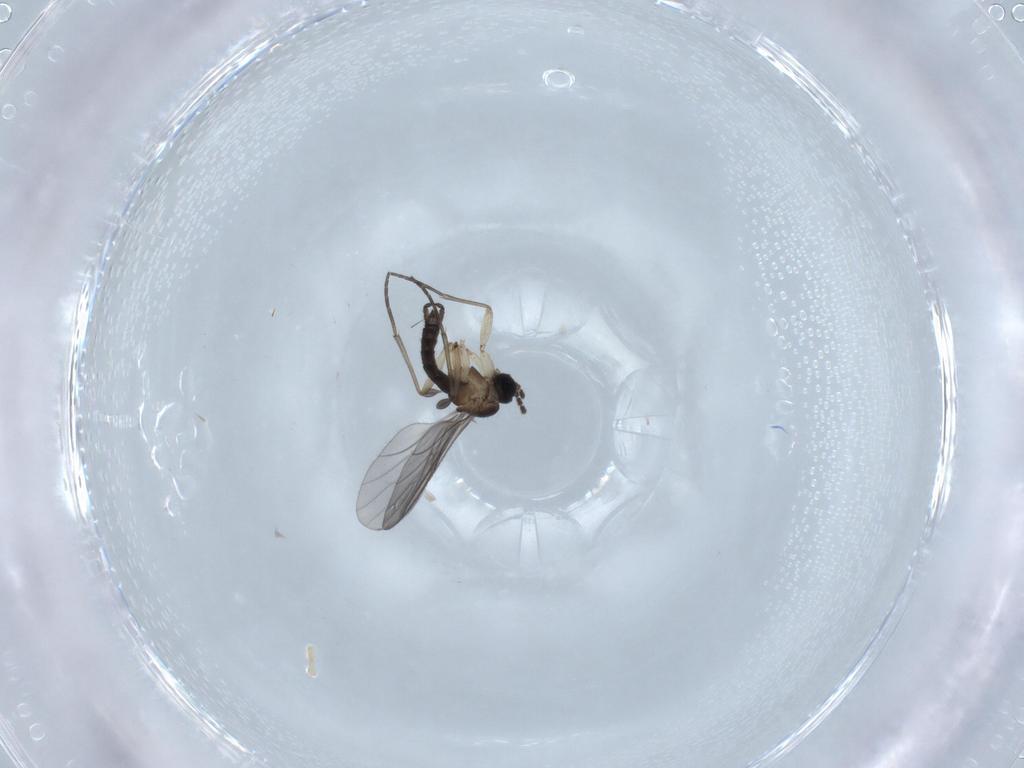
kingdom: Animalia
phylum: Arthropoda
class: Insecta
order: Diptera
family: Sciaridae
